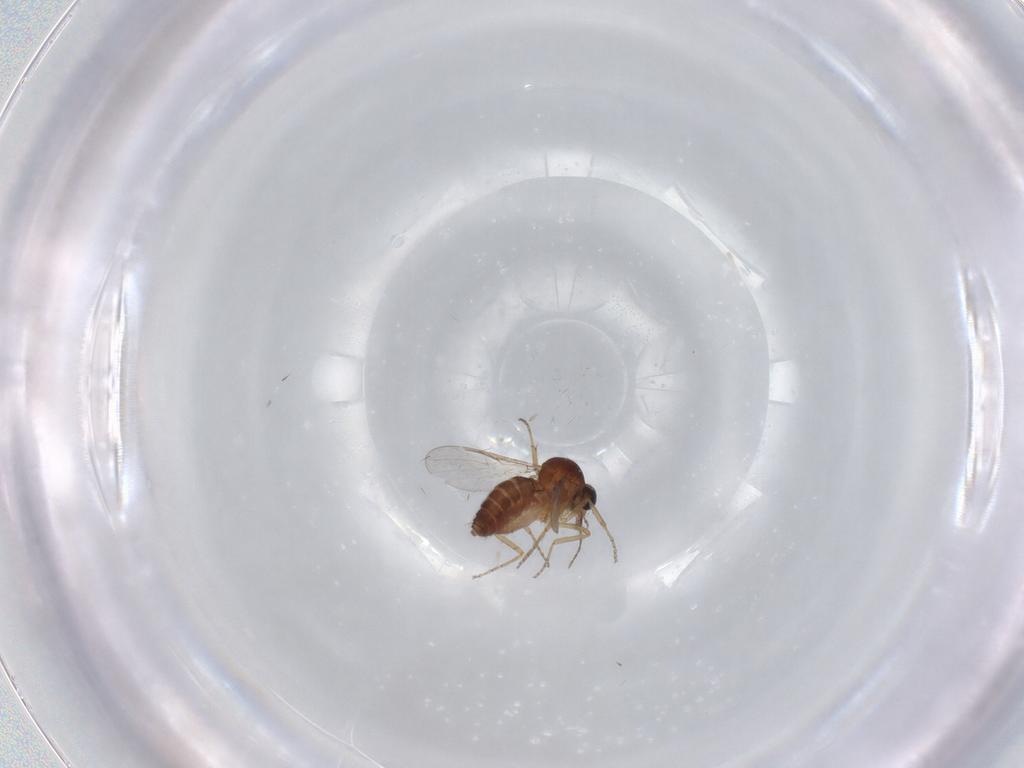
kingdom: Animalia
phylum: Arthropoda
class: Insecta
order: Diptera
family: Ceratopogonidae
